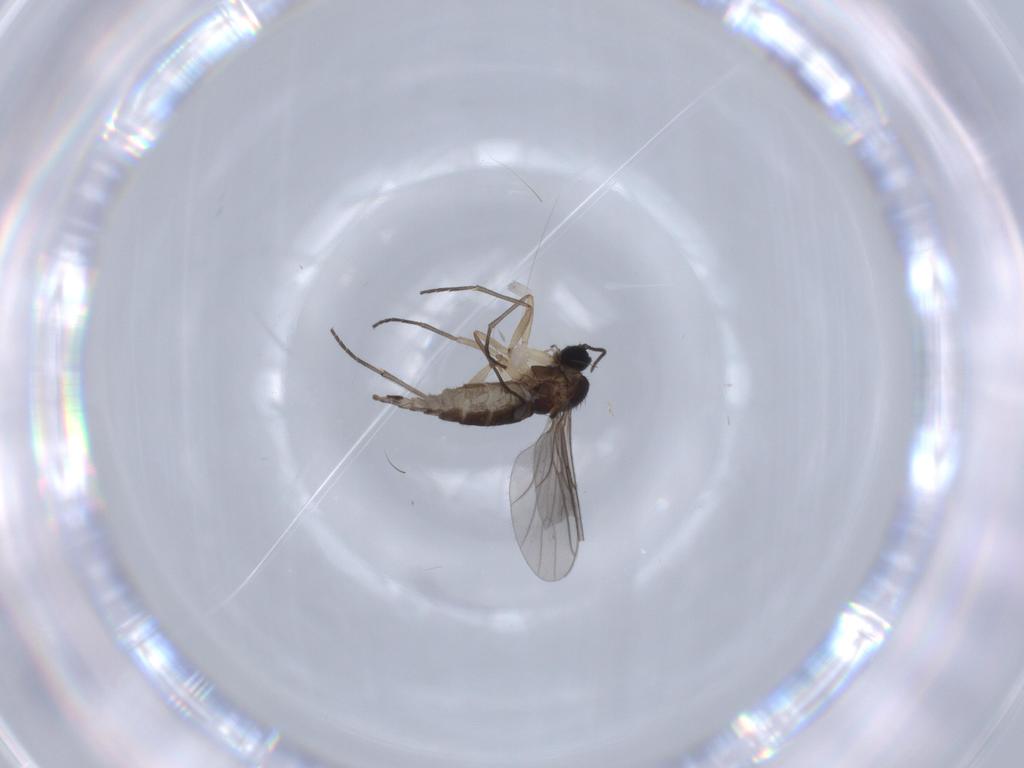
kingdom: Animalia
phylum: Arthropoda
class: Insecta
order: Diptera
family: Sciaridae
